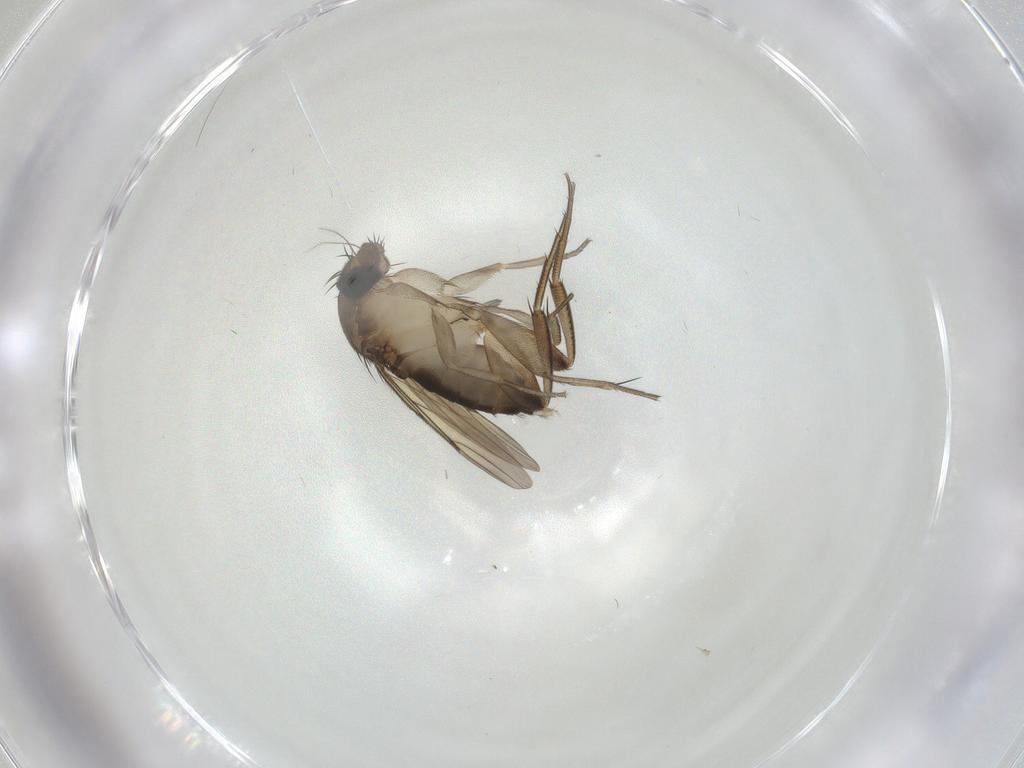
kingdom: Animalia
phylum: Arthropoda
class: Insecta
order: Diptera
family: Phoridae
